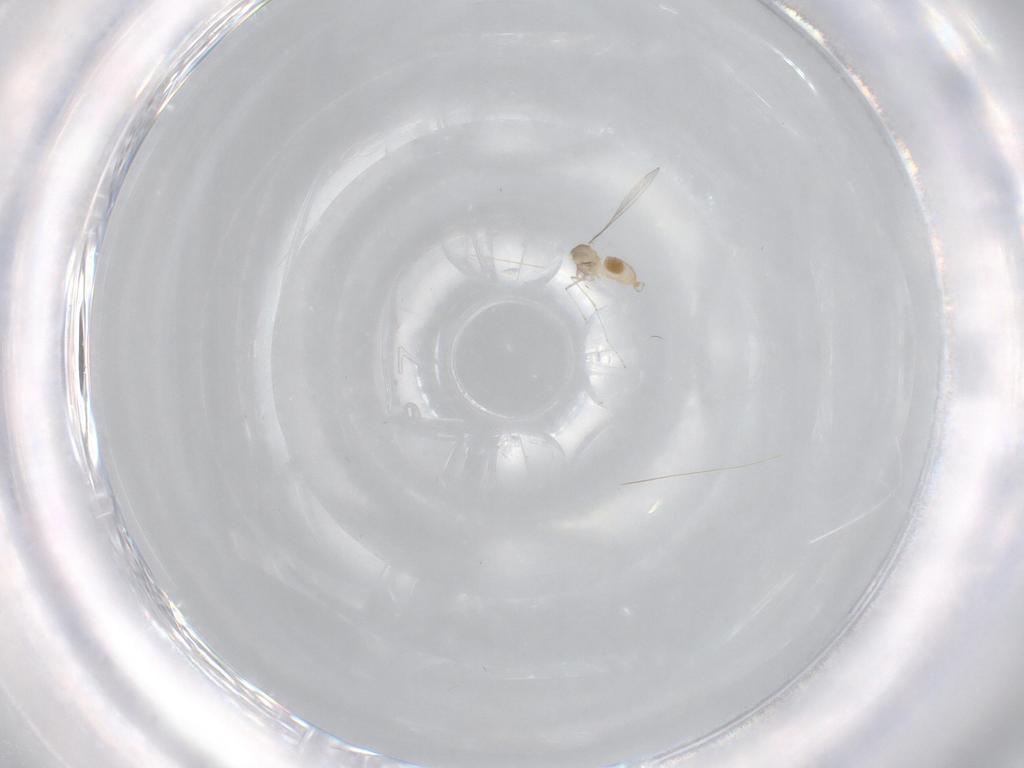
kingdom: Animalia
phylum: Arthropoda
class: Insecta
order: Diptera
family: Cecidomyiidae
